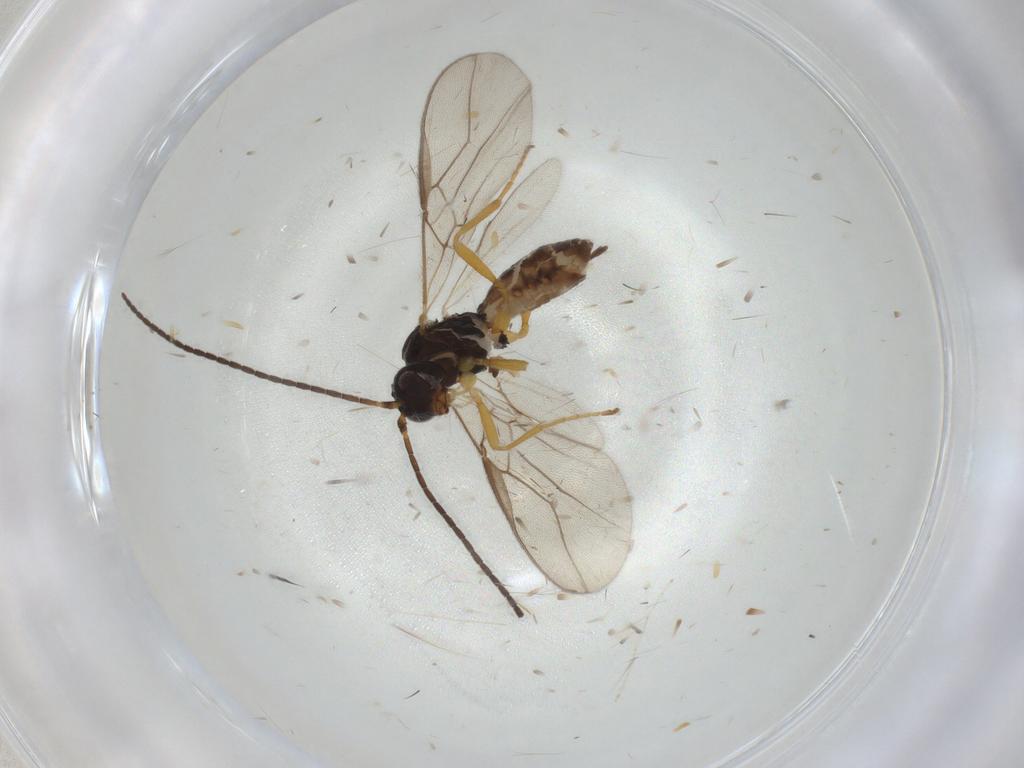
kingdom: Animalia
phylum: Arthropoda
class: Insecta
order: Hymenoptera
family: Braconidae
